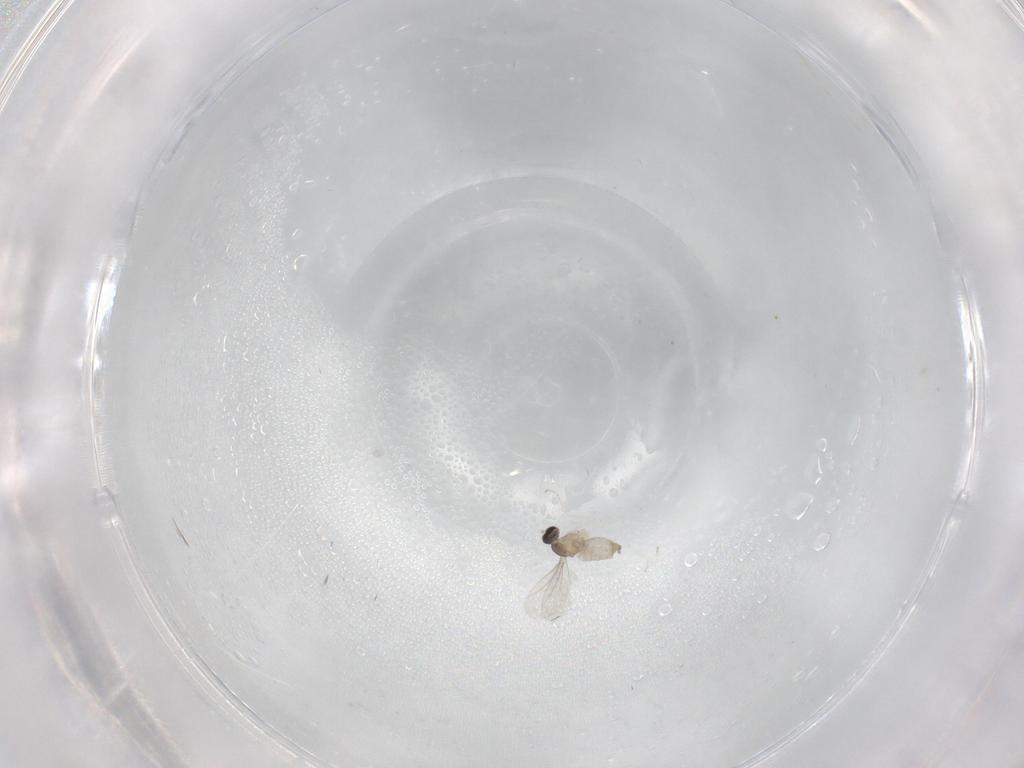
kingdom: Animalia
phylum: Arthropoda
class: Insecta
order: Diptera
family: Cecidomyiidae
